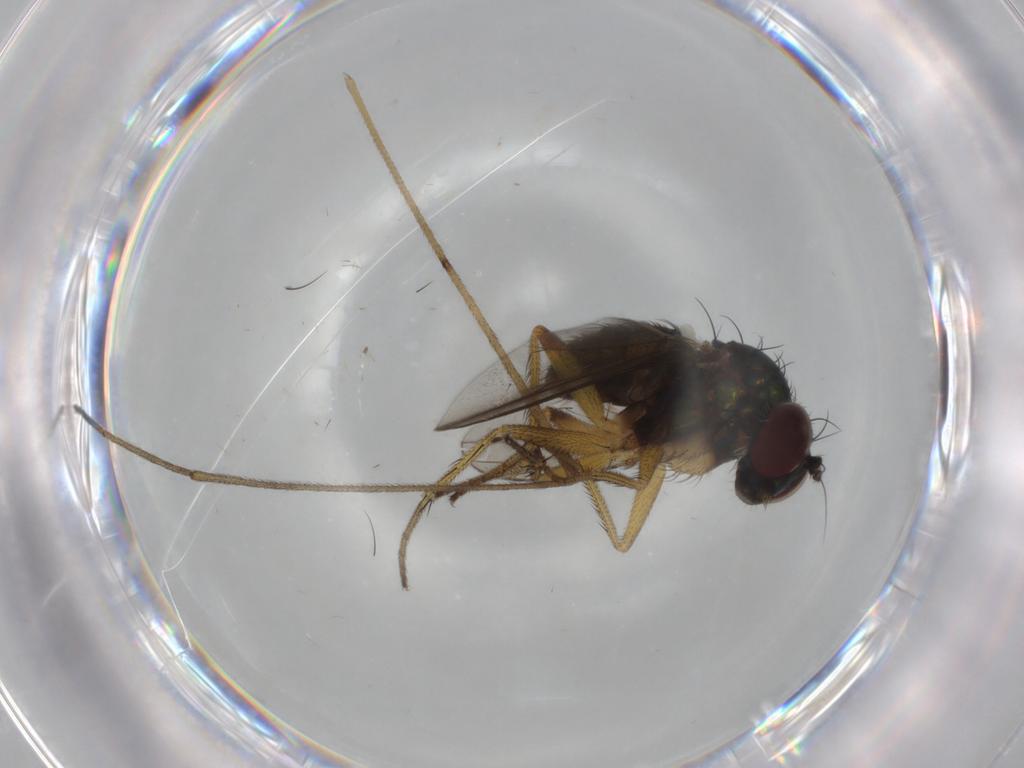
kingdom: Animalia
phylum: Arthropoda
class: Insecta
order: Diptera
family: Dolichopodidae
